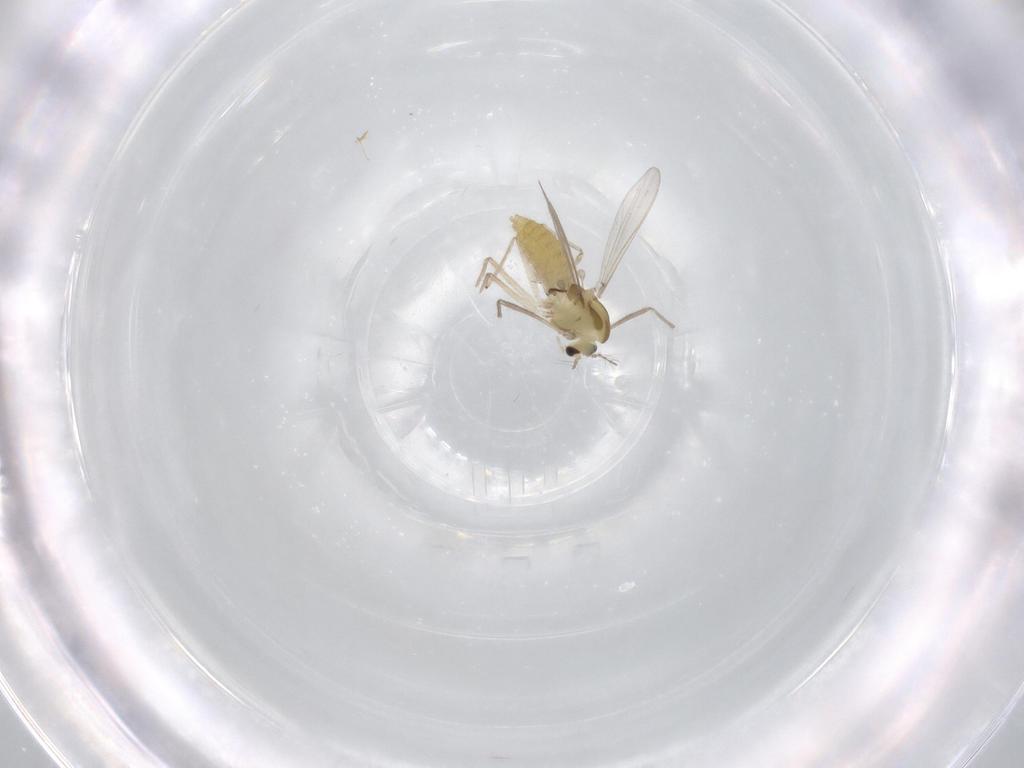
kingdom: Animalia
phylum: Arthropoda
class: Insecta
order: Diptera
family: Chironomidae
